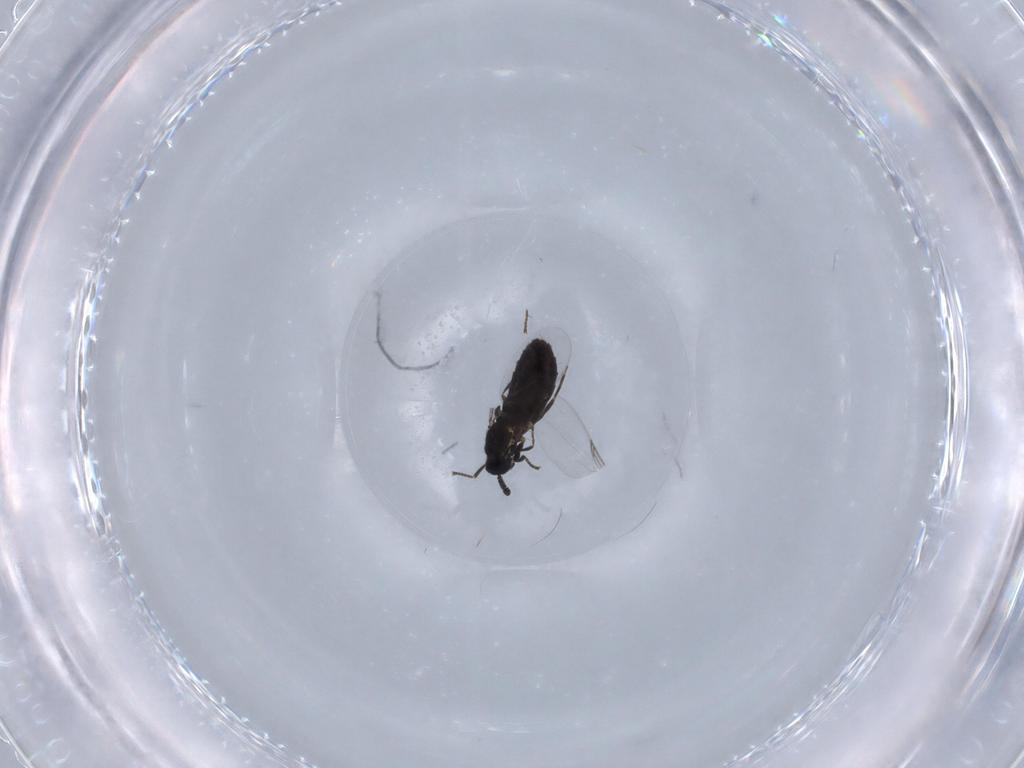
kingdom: Animalia
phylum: Arthropoda
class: Insecta
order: Diptera
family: Scatopsidae
